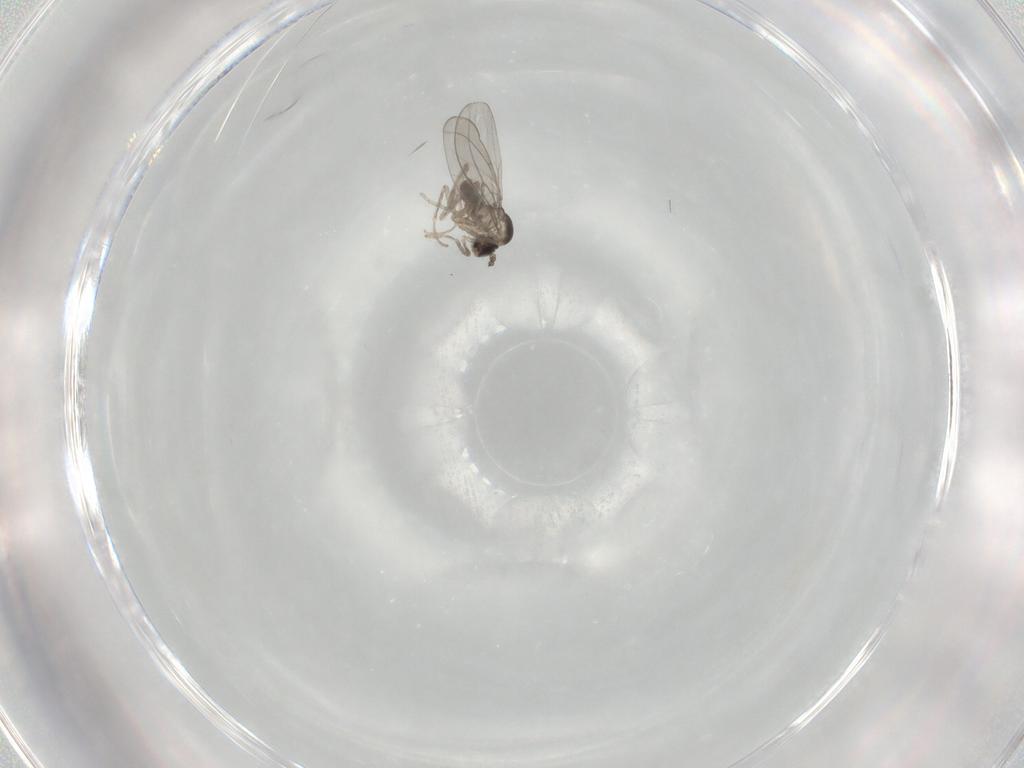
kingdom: Animalia
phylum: Arthropoda
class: Insecta
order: Diptera
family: Cecidomyiidae
